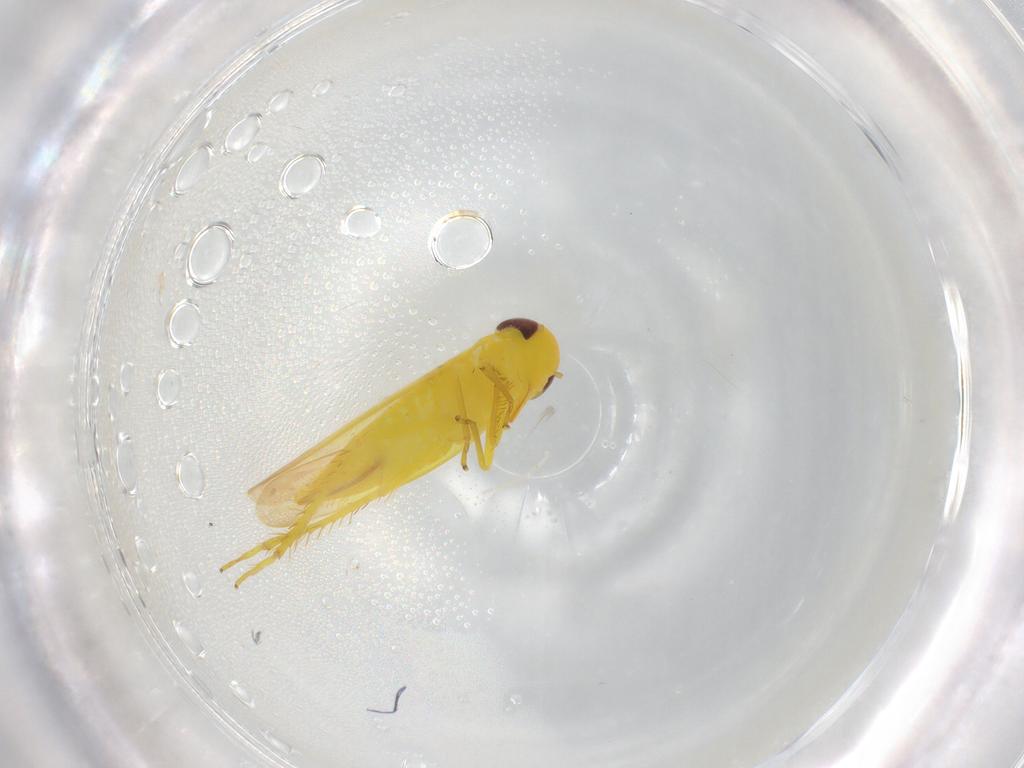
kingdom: Animalia
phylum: Arthropoda
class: Insecta
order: Hemiptera
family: Cicadellidae
